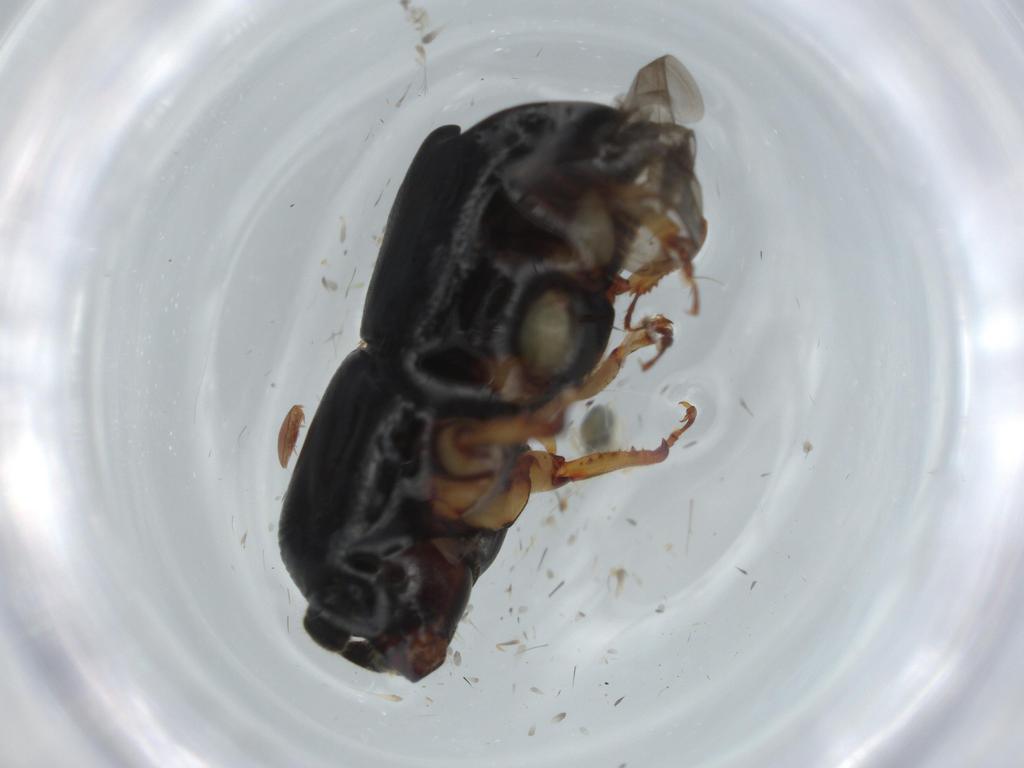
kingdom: Animalia
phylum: Arthropoda
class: Insecta
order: Coleoptera
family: Curculionidae
